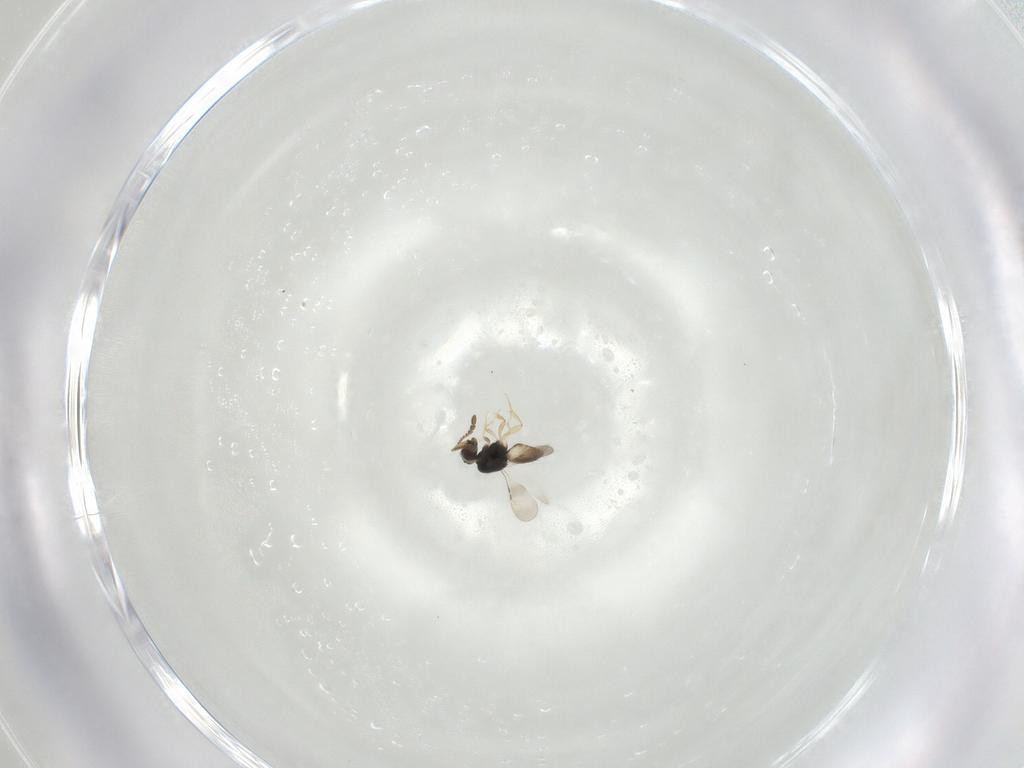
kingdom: Animalia
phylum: Arthropoda
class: Insecta
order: Hymenoptera
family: Ceraphronidae
